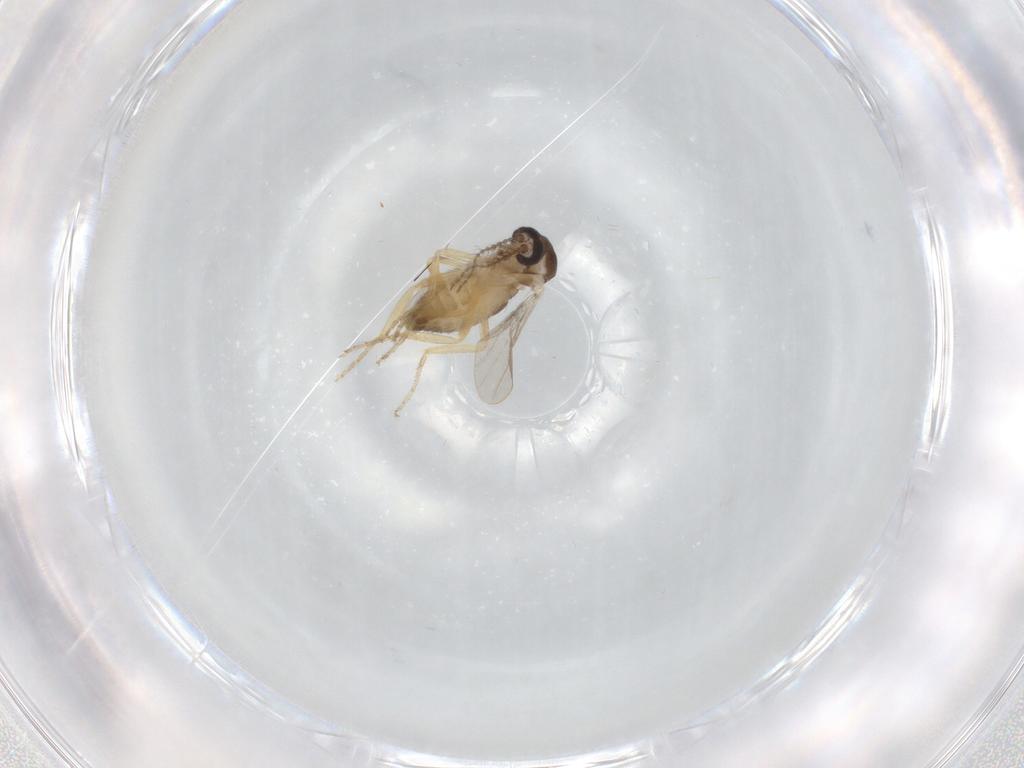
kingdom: Animalia
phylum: Arthropoda
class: Insecta
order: Diptera
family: Ceratopogonidae
